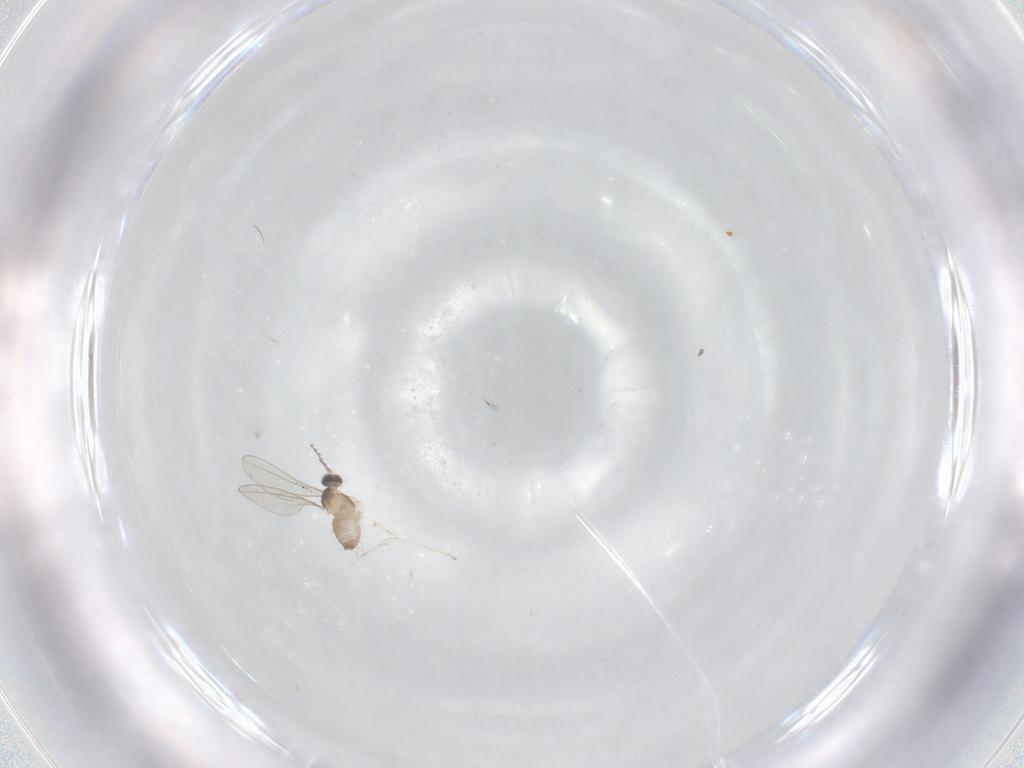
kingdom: Animalia
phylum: Arthropoda
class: Insecta
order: Diptera
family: Cecidomyiidae
